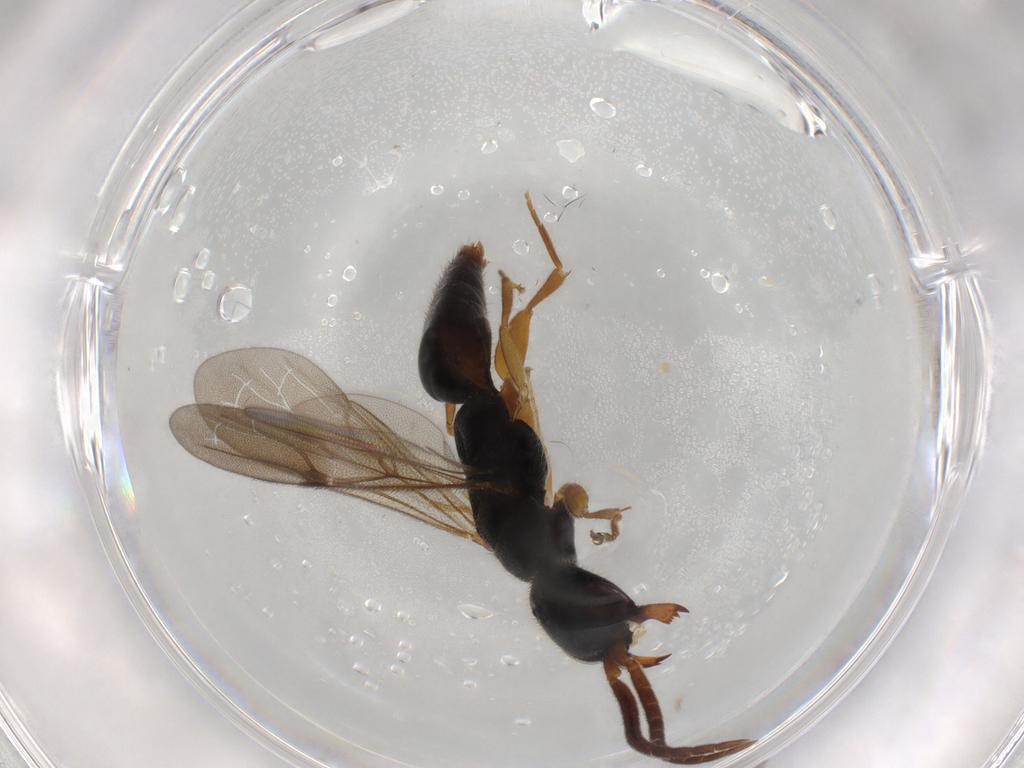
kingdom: Animalia
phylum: Arthropoda
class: Insecta
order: Hymenoptera
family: Bethylidae
